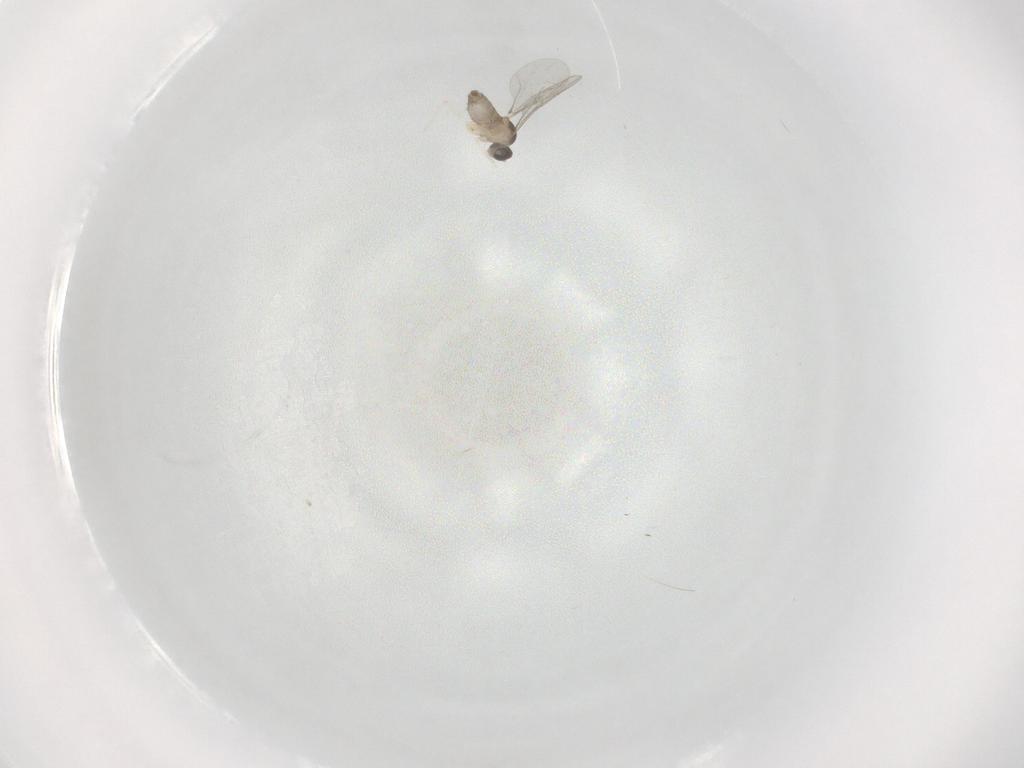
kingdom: Animalia
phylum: Arthropoda
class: Insecta
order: Diptera
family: Cecidomyiidae
